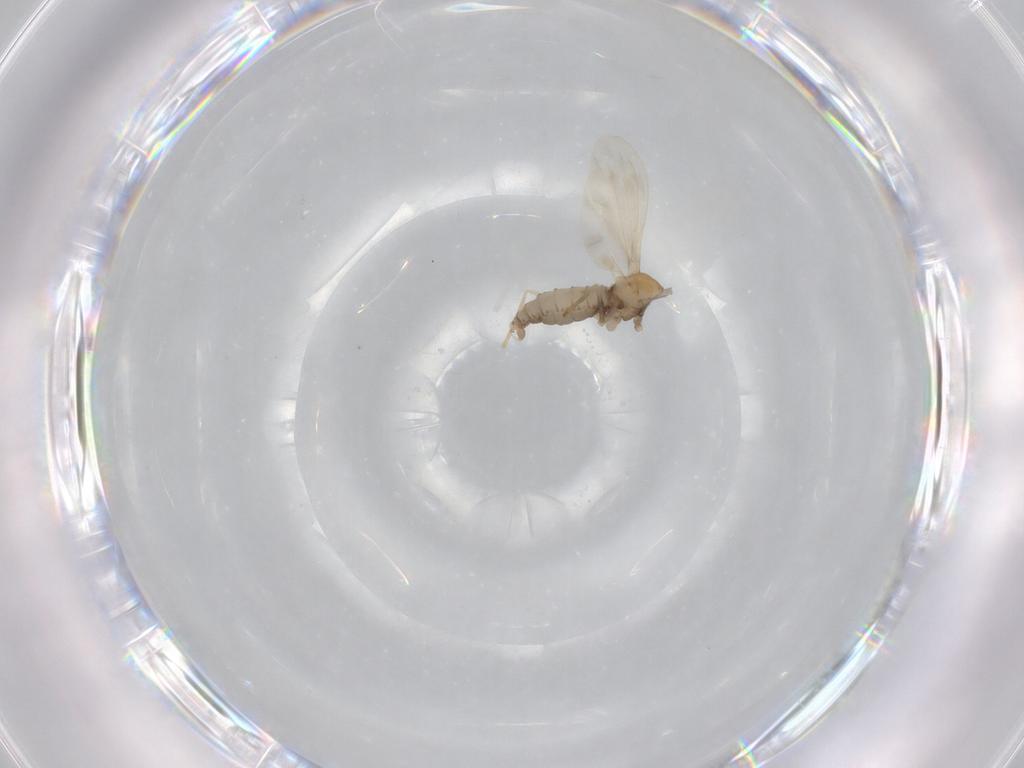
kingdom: Animalia
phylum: Arthropoda
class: Insecta
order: Diptera
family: Cecidomyiidae
